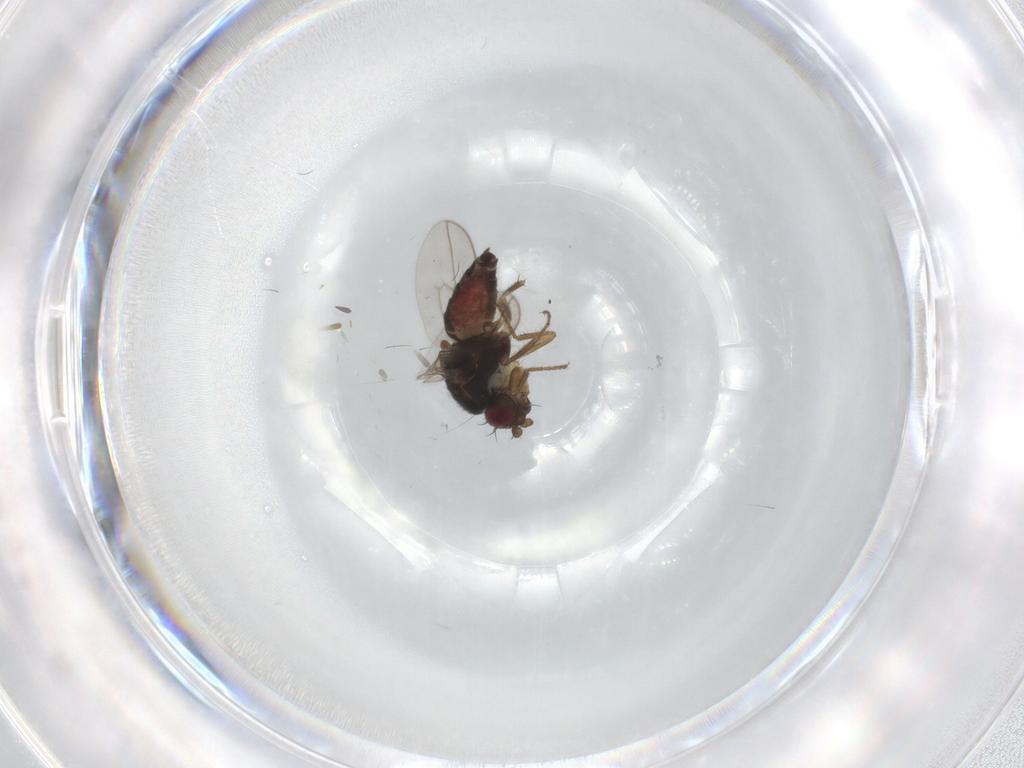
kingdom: Animalia
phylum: Arthropoda
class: Insecta
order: Diptera
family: Sphaeroceridae
